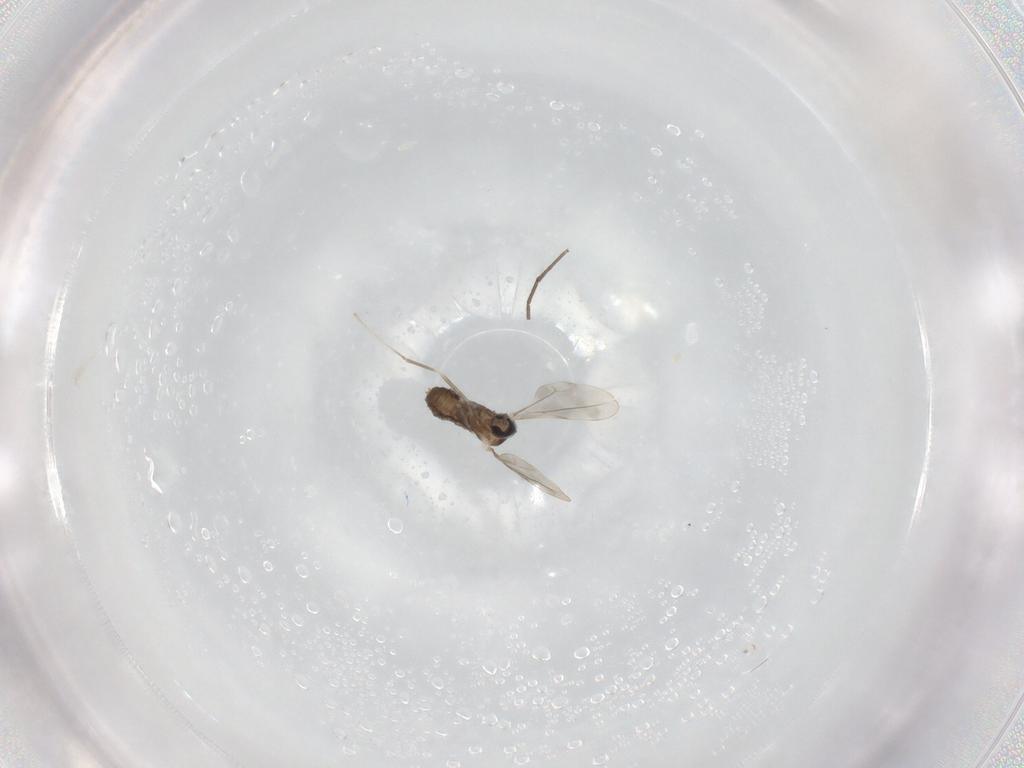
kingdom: Animalia
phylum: Arthropoda
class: Insecta
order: Diptera
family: Cecidomyiidae
